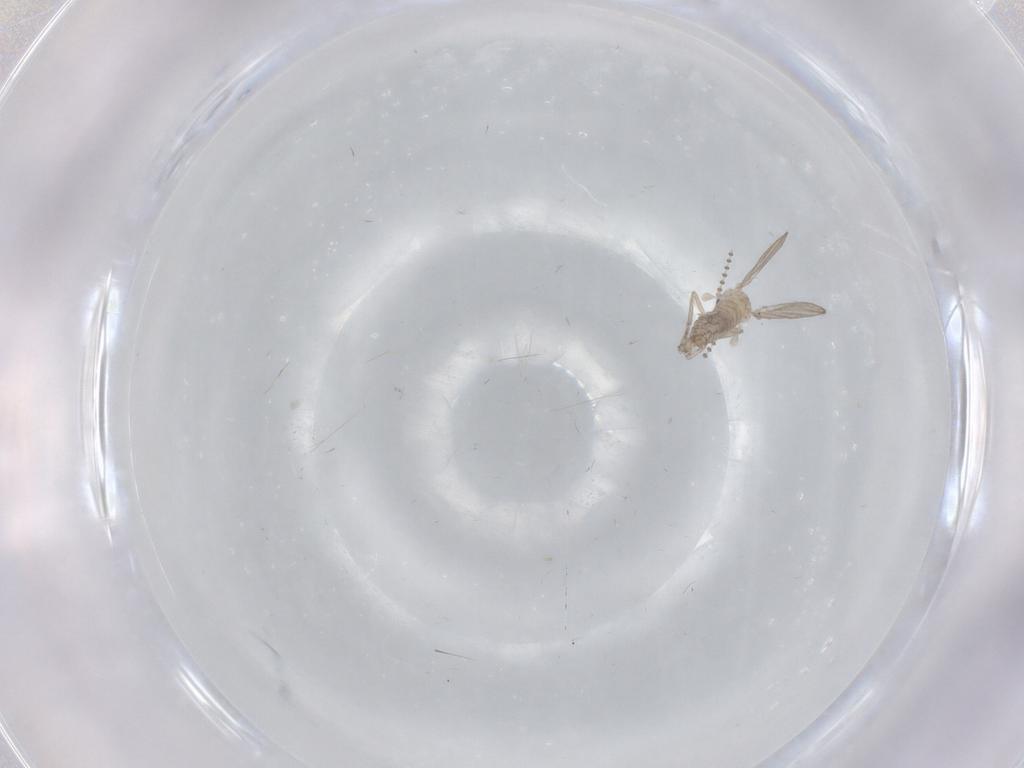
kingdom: Animalia
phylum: Arthropoda
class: Insecta
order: Diptera
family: Psychodidae
